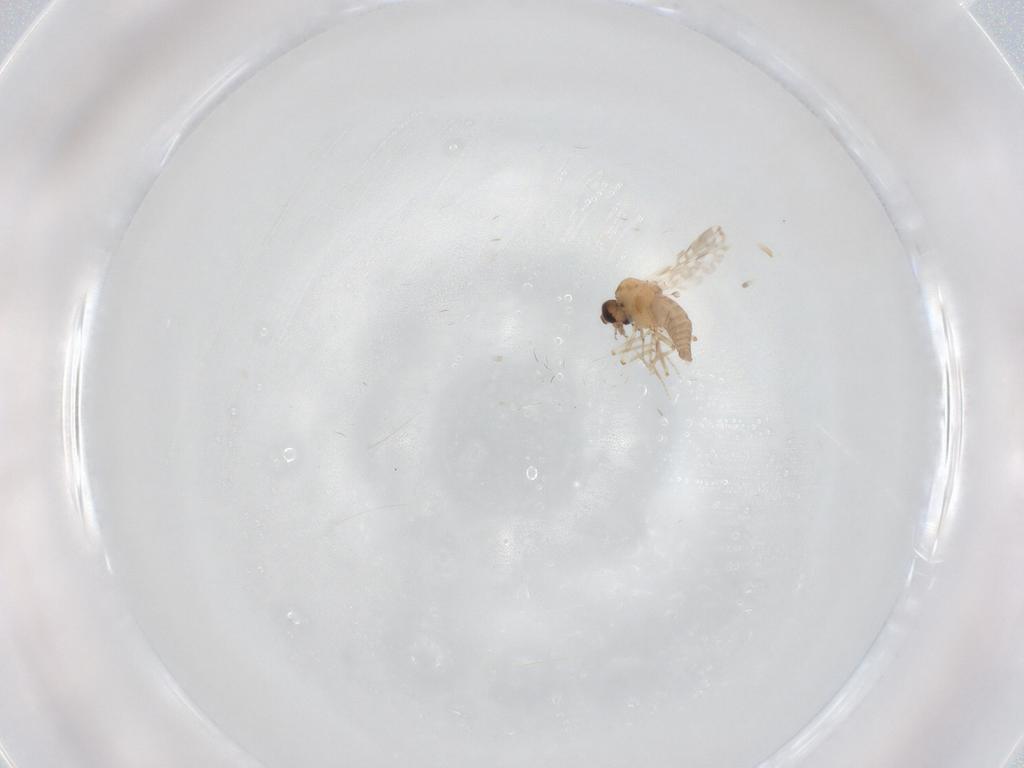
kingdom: Animalia
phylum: Arthropoda
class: Insecta
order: Diptera
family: Ceratopogonidae
